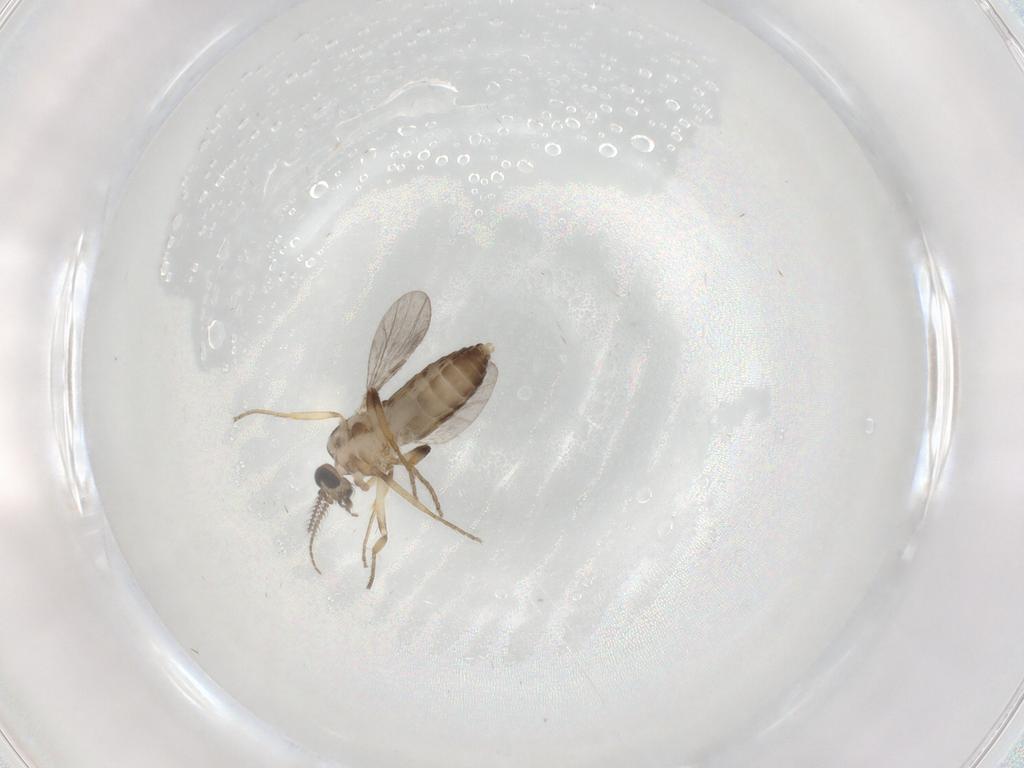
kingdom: Animalia
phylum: Arthropoda
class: Insecta
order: Diptera
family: Ceratopogonidae
